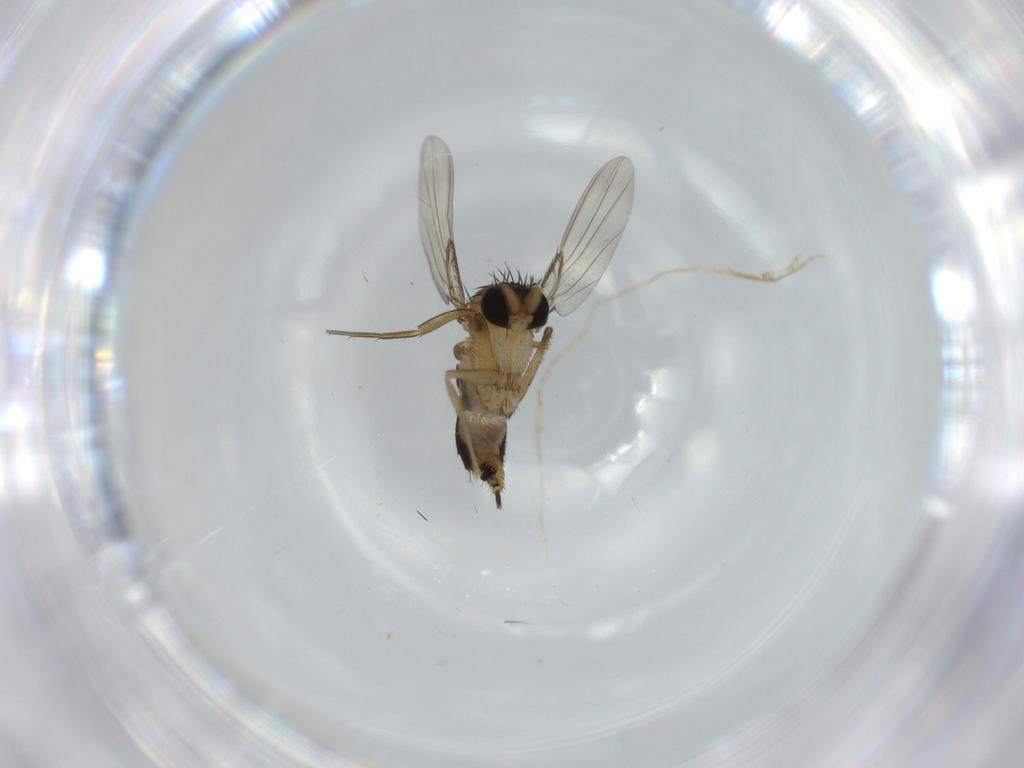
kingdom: Animalia
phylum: Arthropoda
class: Insecta
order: Diptera
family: Phoridae
